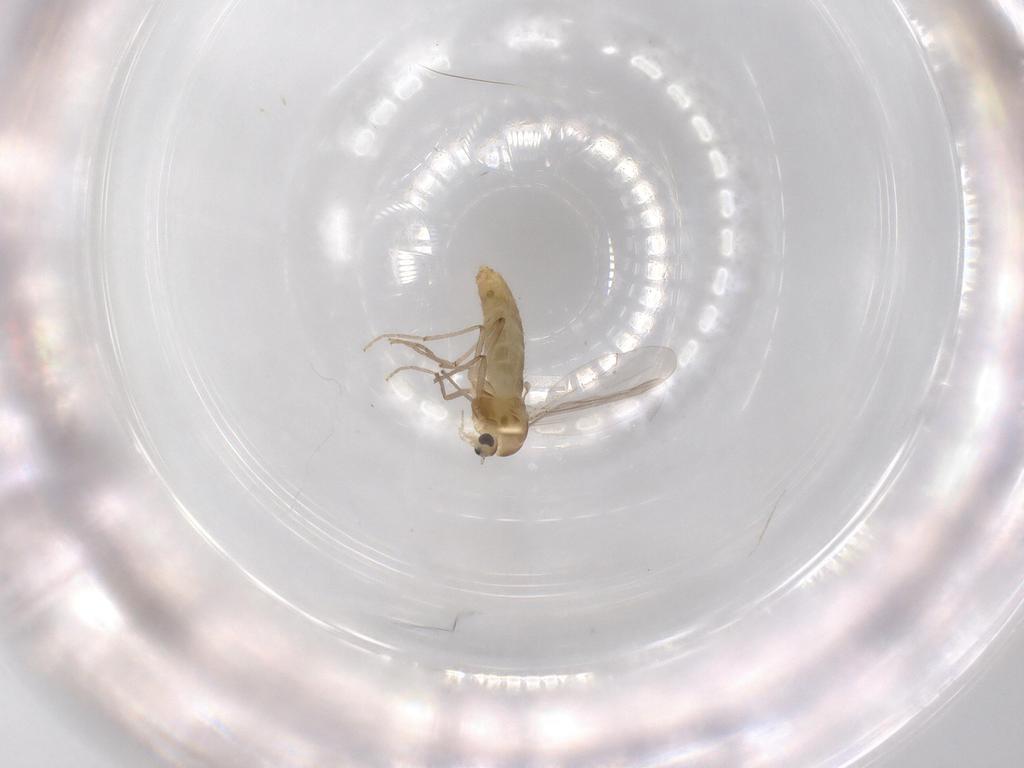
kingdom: Animalia
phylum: Arthropoda
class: Insecta
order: Diptera
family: Chironomidae
